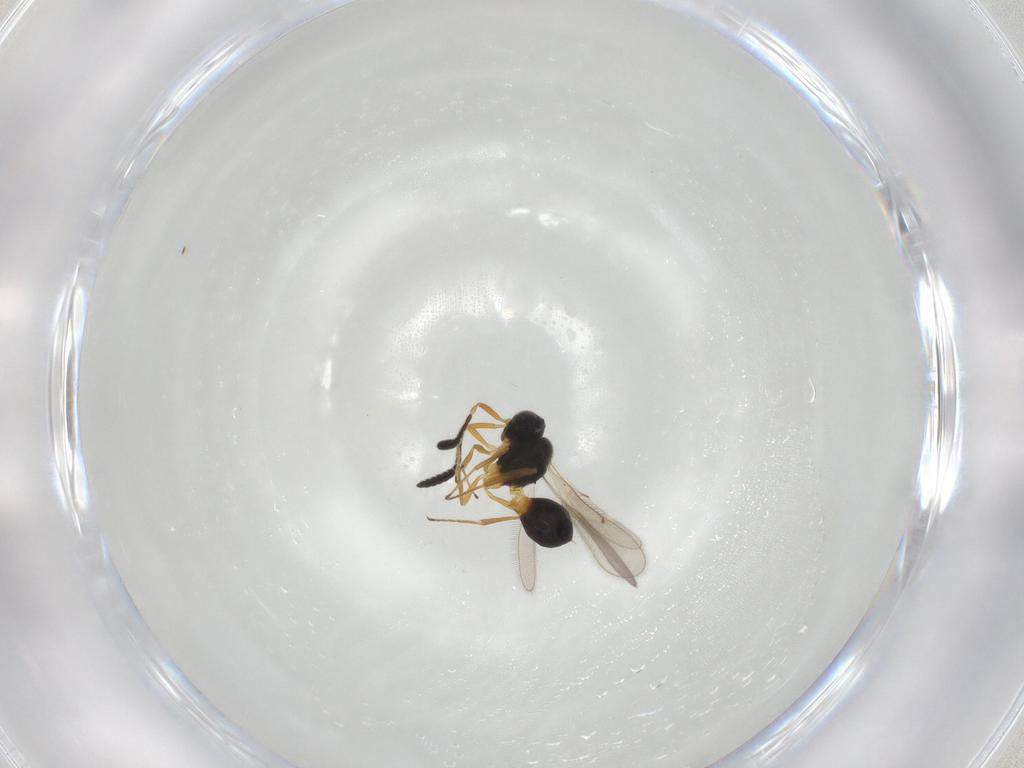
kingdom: Animalia
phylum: Arthropoda
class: Insecta
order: Hymenoptera
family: Scelionidae
